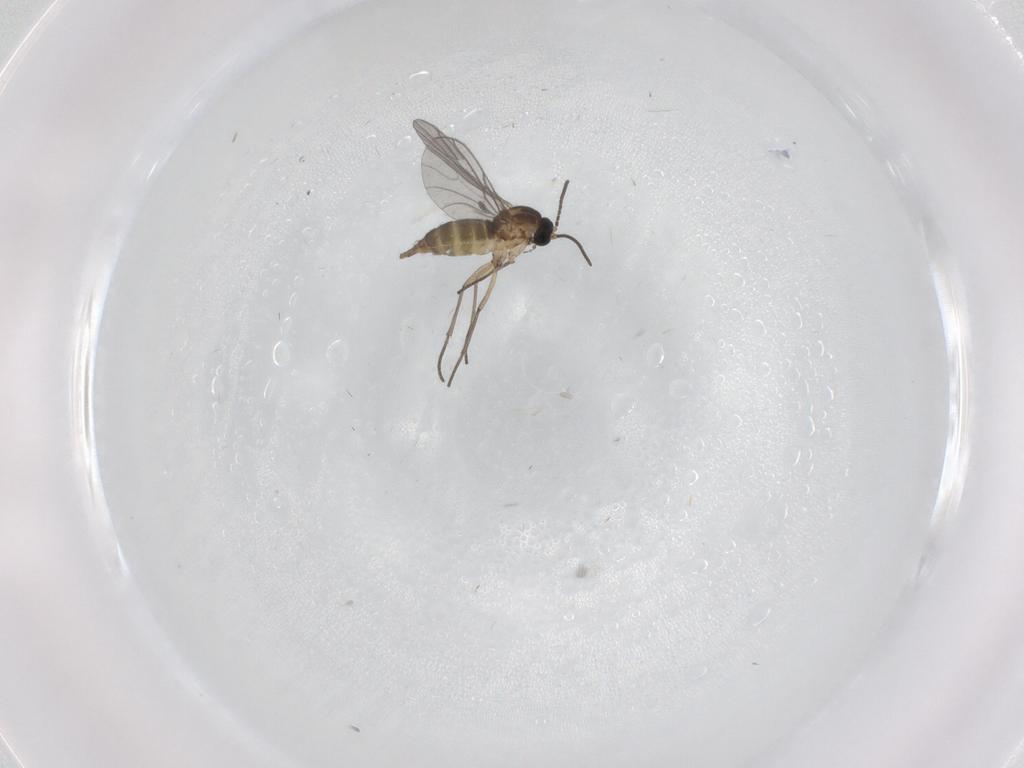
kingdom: Animalia
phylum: Arthropoda
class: Insecta
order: Diptera
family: Sciaridae
